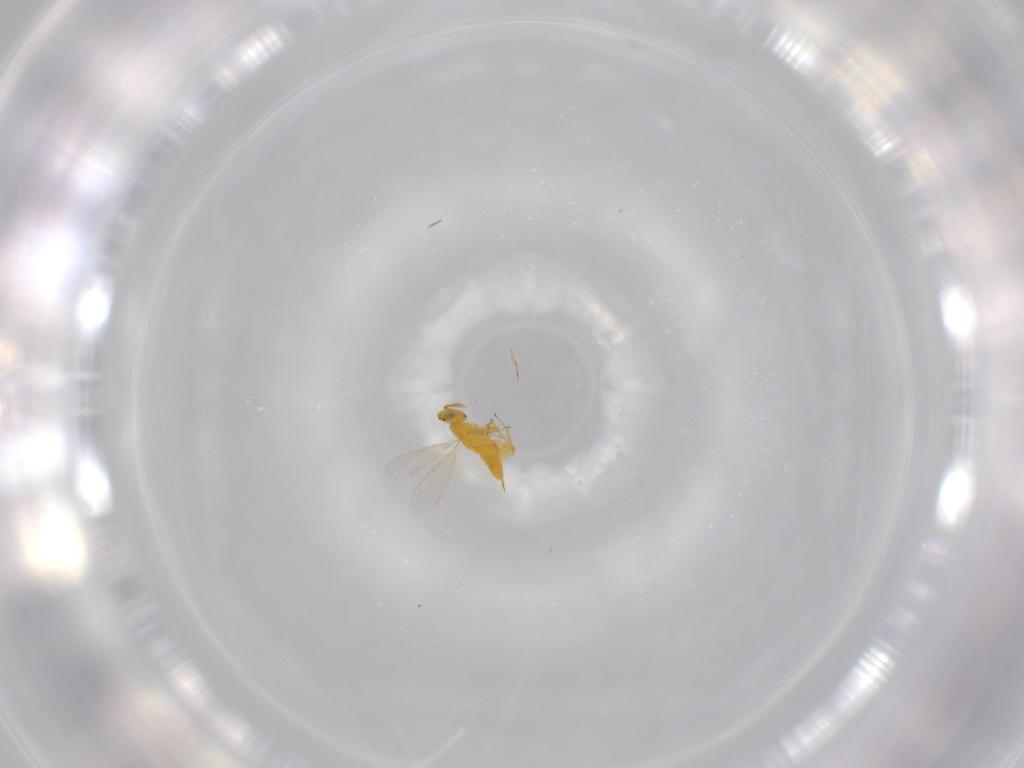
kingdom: Animalia
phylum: Arthropoda
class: Insecta
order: Hymenoptera
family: Aphelinidae
